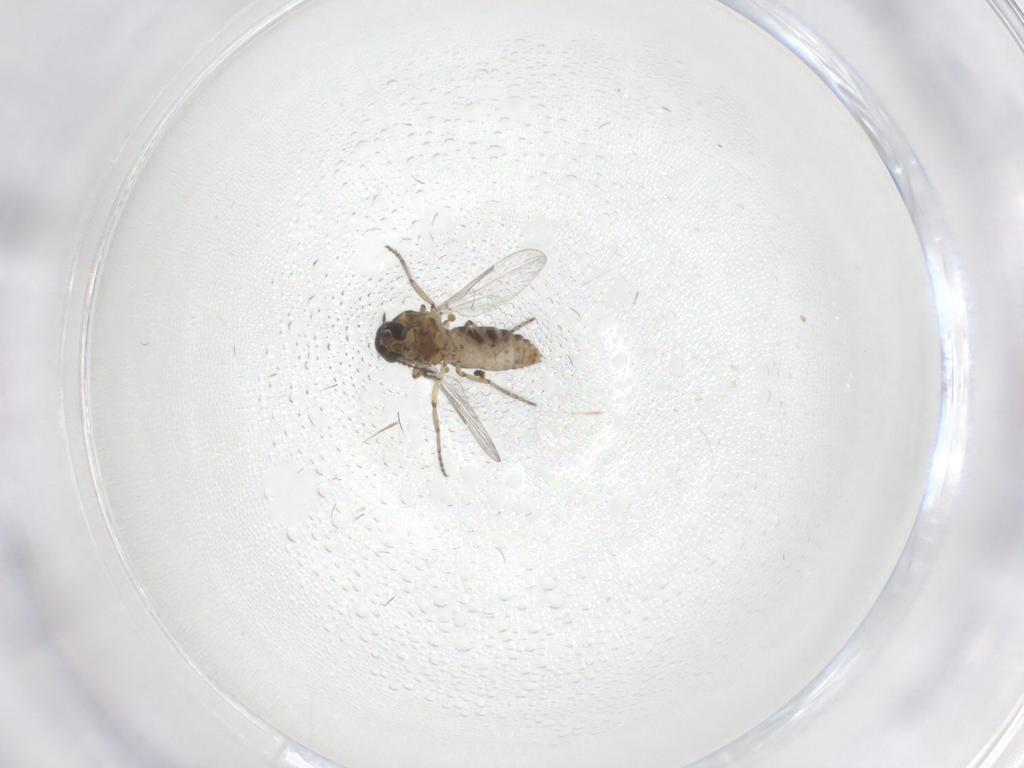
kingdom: Animalia
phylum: Arthropoda
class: Insecta
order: Diptera
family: Ceratopogonidae
